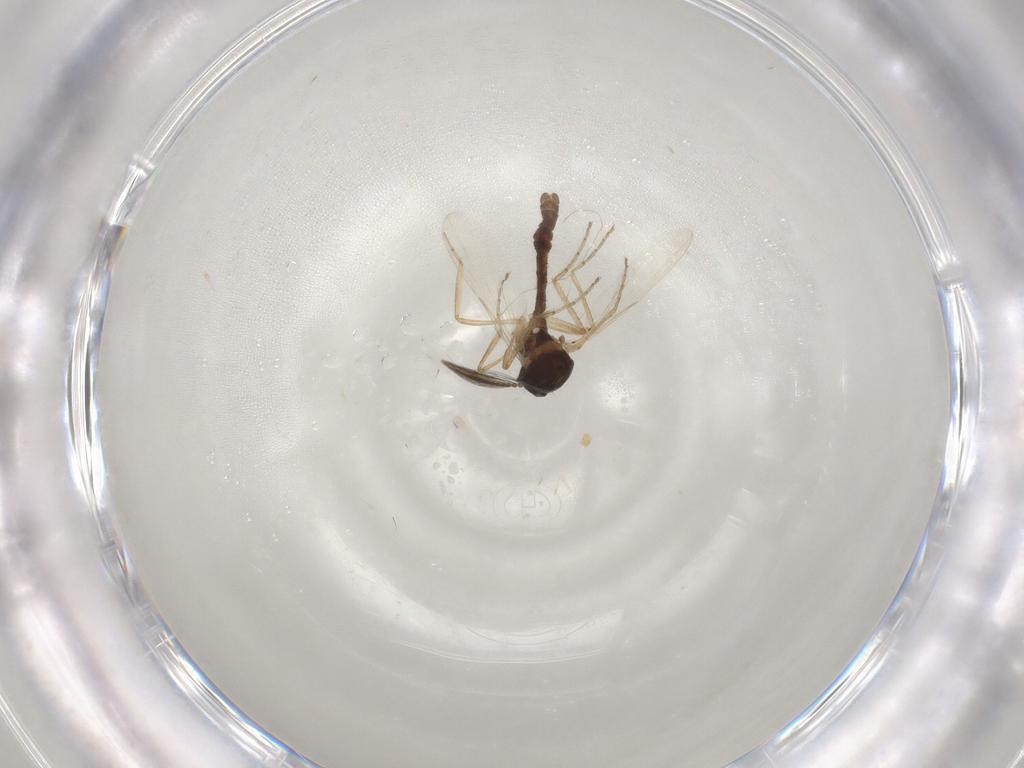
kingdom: Animalia
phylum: Arthropoda
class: Insecta
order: Diptera
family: Ceratopogonidae
